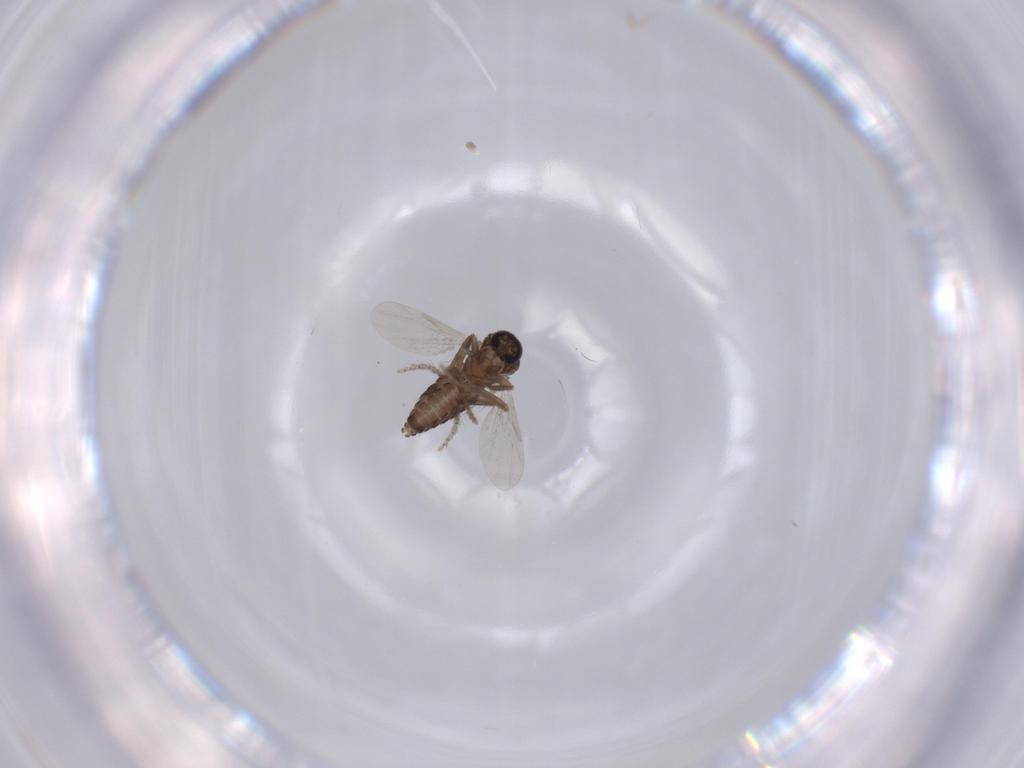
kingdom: Animalia
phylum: Arthropoda
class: Insecta
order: Diptera
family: Ceratopogonidae
